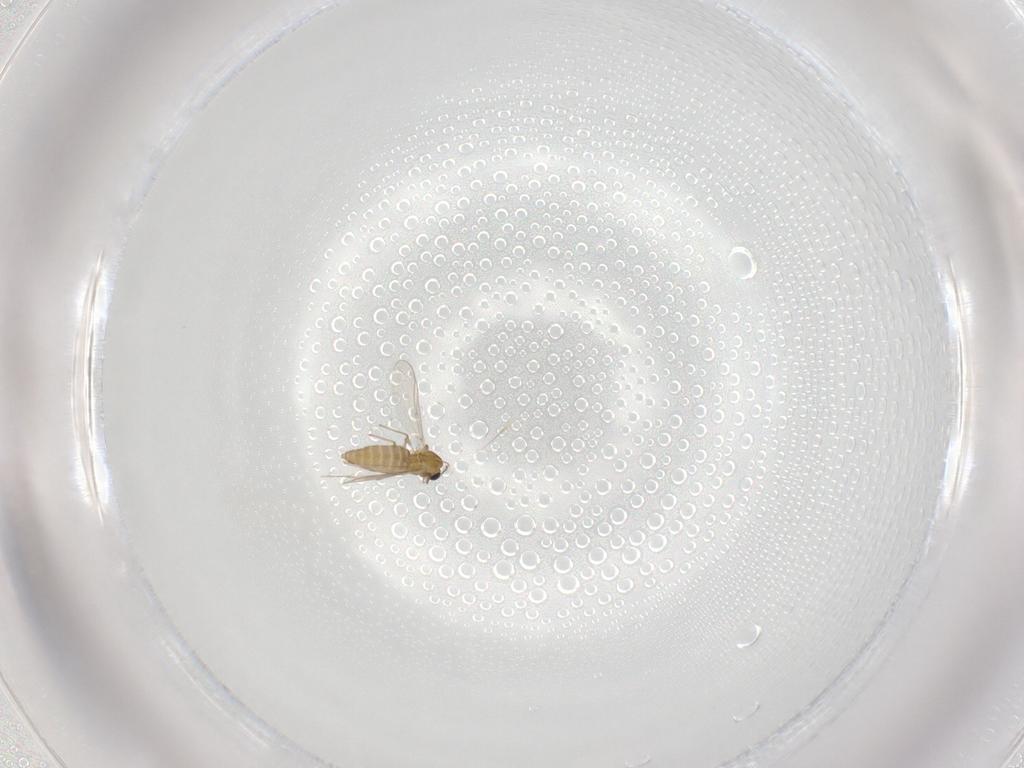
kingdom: Animalia
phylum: Arthropoda
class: Insecta
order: Diptera
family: Chironomidae
